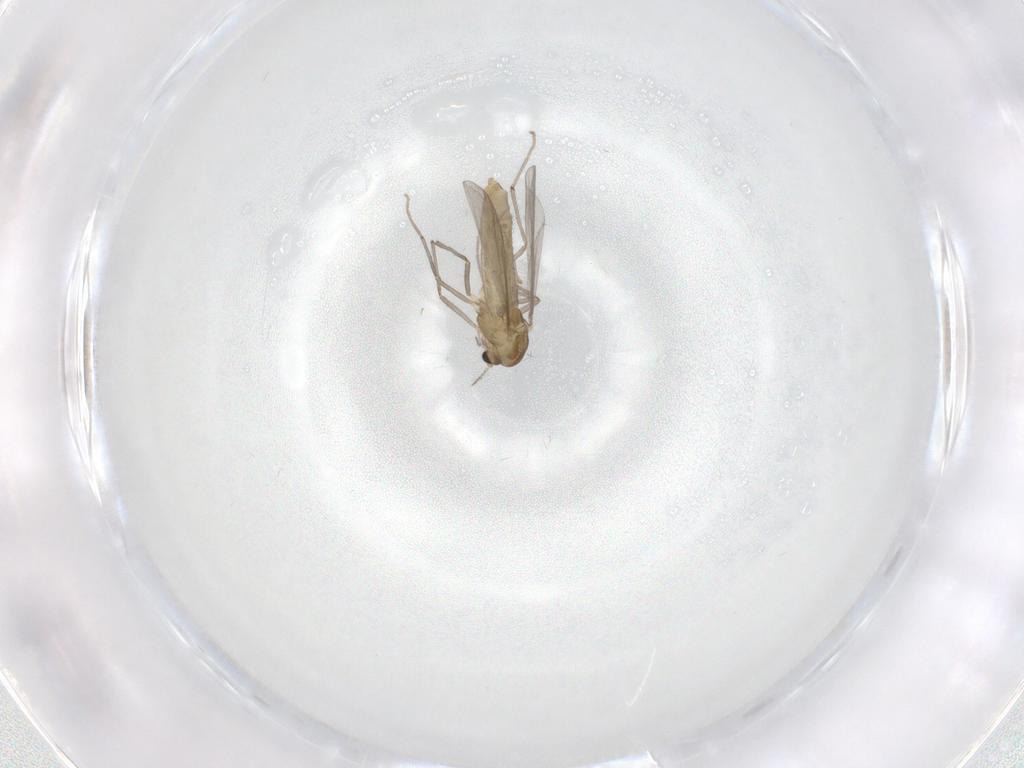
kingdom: Animalia
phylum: Arthropoda
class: Insecta
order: Diptera
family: Chironomidae
